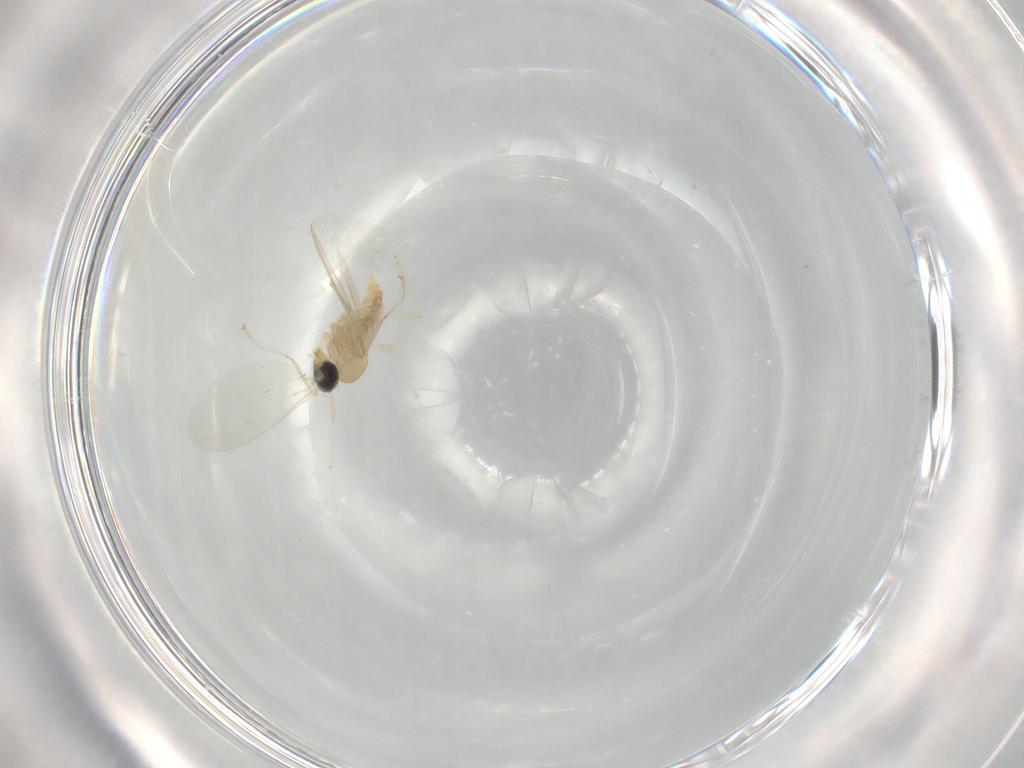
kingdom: Animalia
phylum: Arthropoda
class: Insecta
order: Diptera
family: Cecidomyiidae
